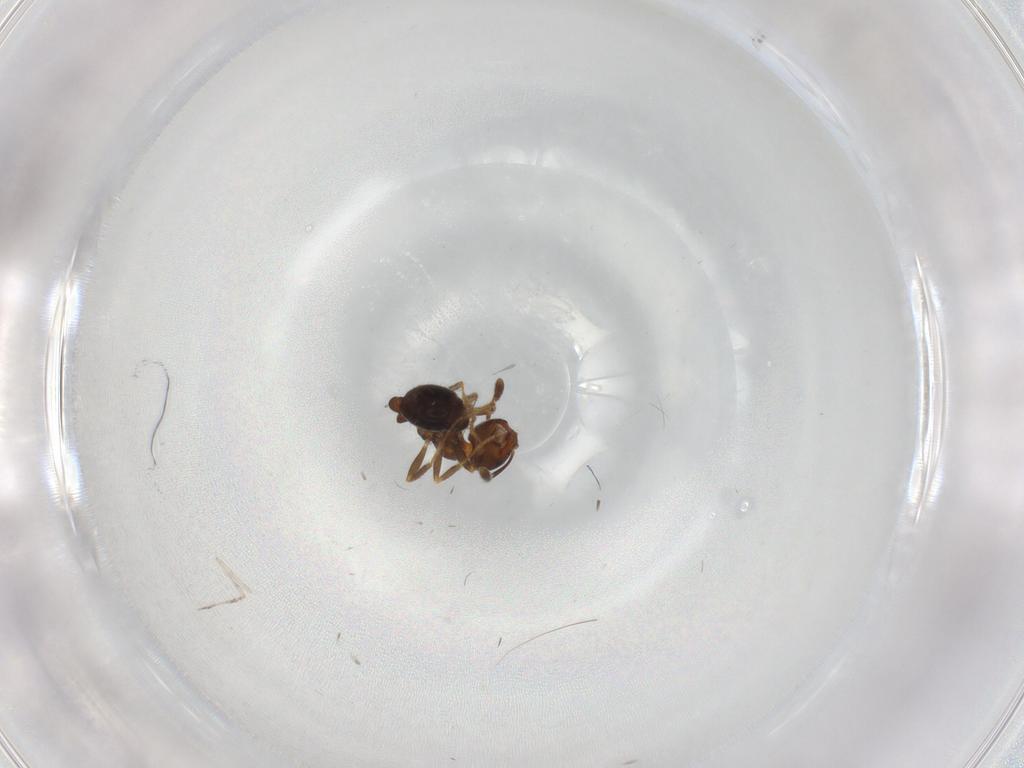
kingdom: Animalia
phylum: Arthropoda
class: Insecta
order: Diptera
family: Cecidomyiidae
